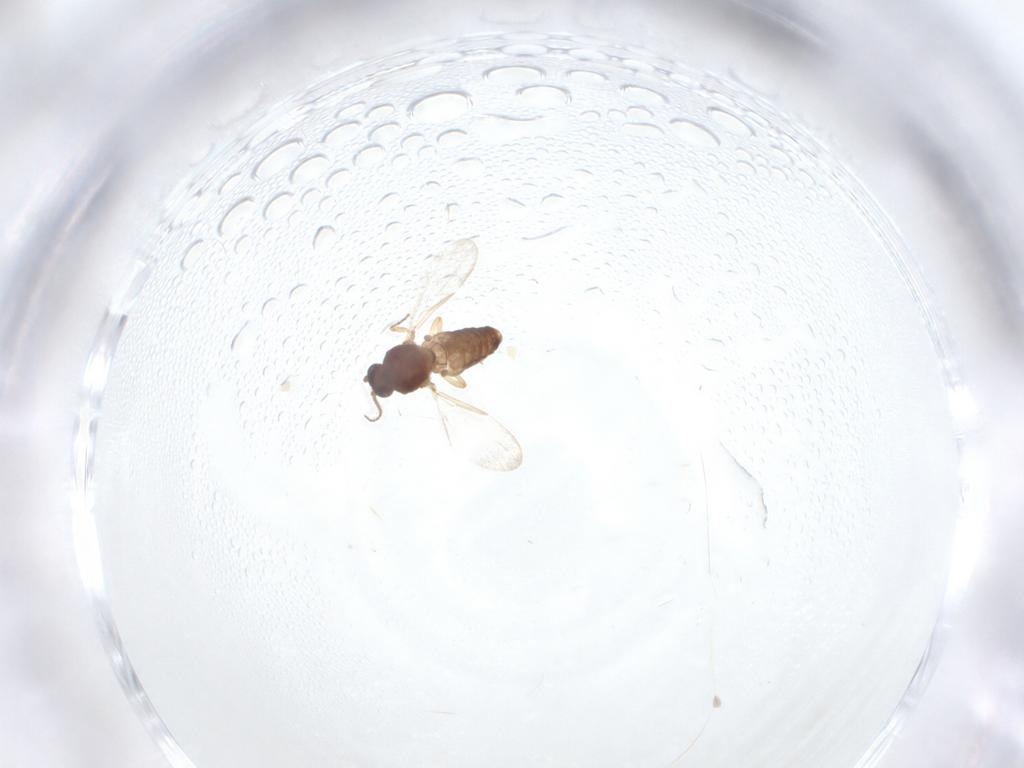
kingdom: Animalia
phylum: Arthropoda
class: Insecta
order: Diptera
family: Ceratopogonidae
